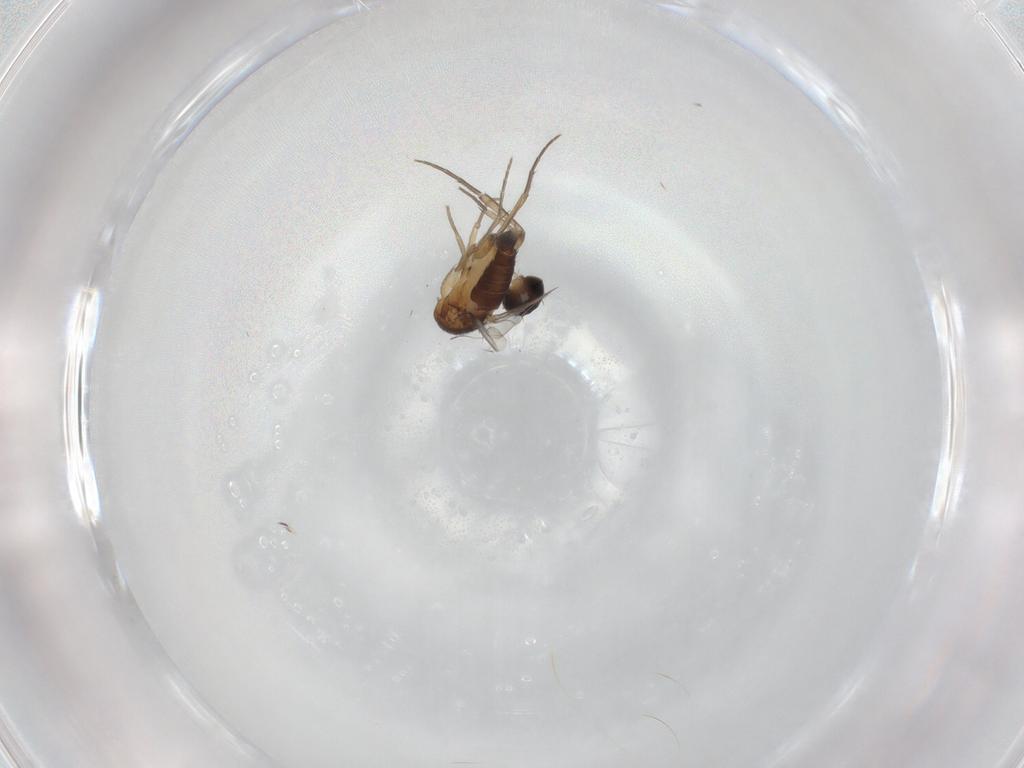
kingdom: Animalia
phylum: Arthropoda
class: Insecta
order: Diptera
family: Phoridae
